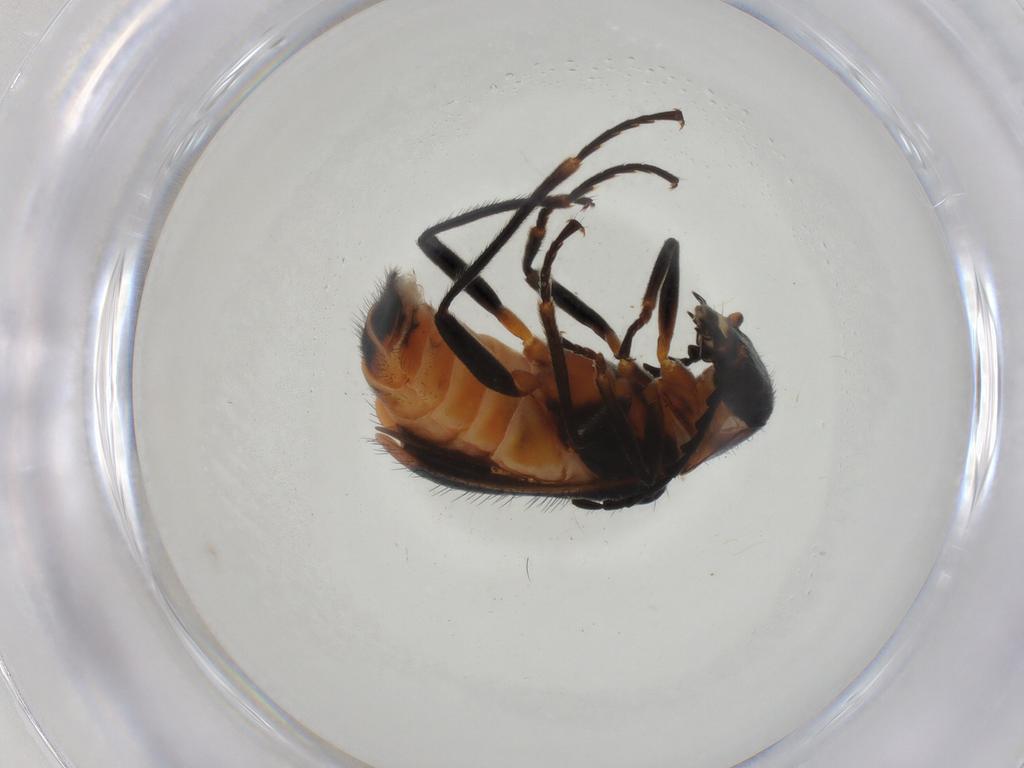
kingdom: Animalia
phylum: Arthropoda
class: Insecta
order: Coleoptera
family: Melyridae
